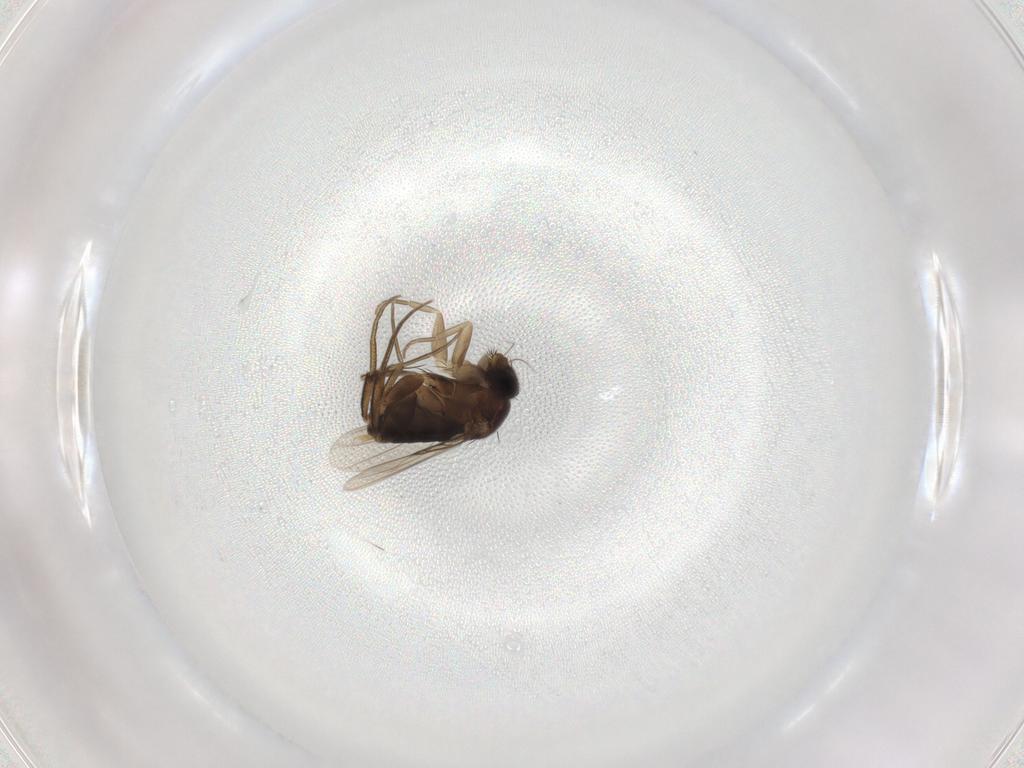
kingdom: Animalia
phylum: Arthropoda
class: Insecta
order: Diptera
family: Phoridae
